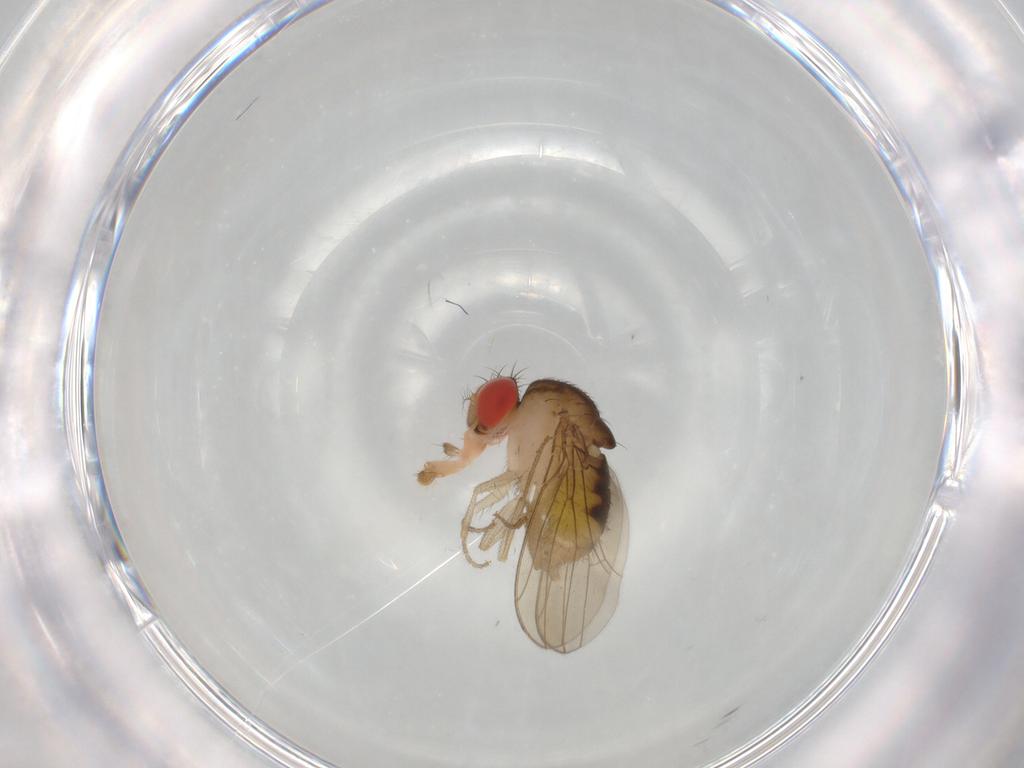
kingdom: Animalia
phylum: Arthropoda
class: Insecta
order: Diptera
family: Drosophilidae
